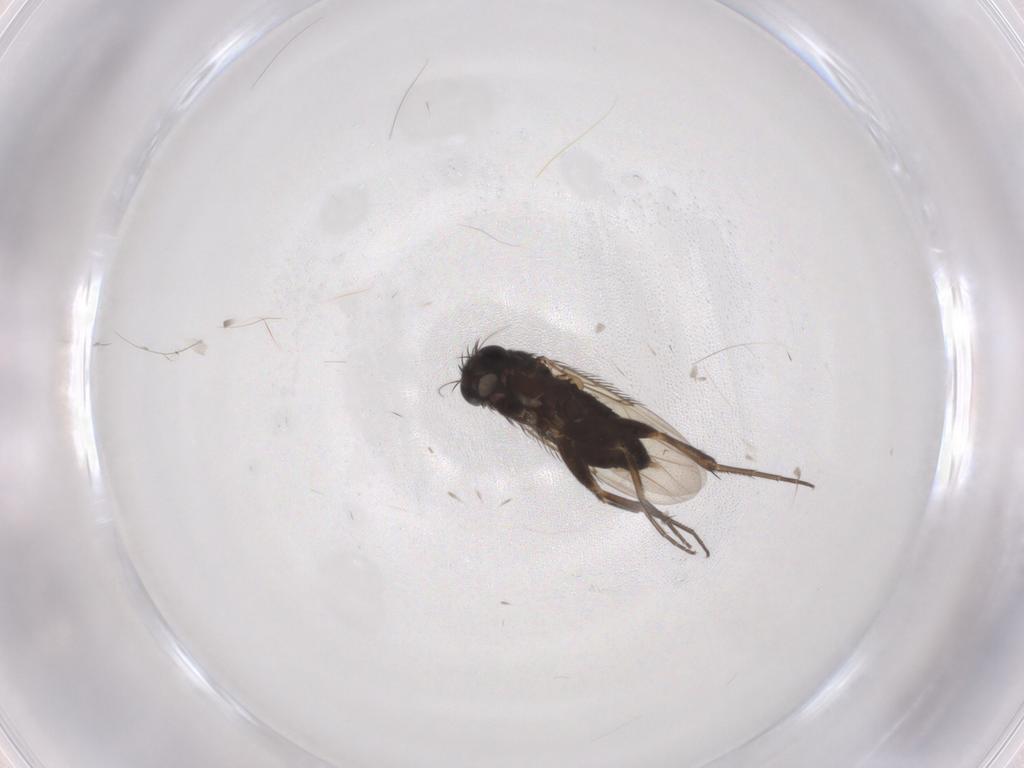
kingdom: Animalia
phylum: Arthropoda
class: Insecta
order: Diptera
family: Phoridae
